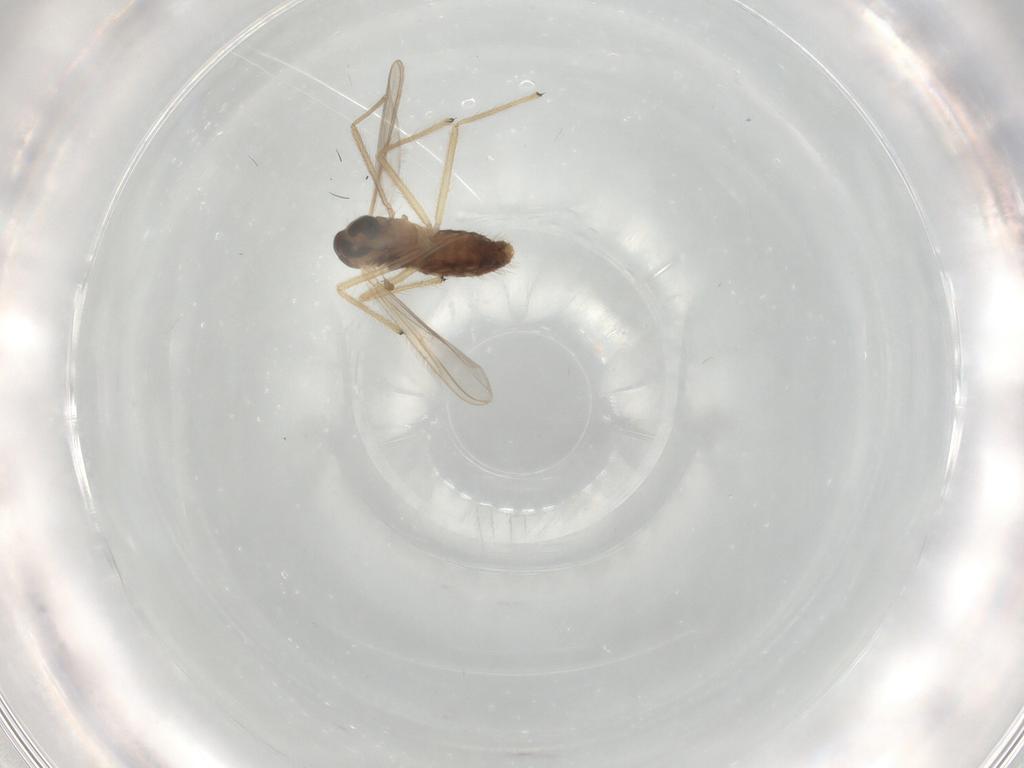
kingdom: Animalia
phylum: Arthropoda
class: Insecta
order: Diptera
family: Chironomidae
